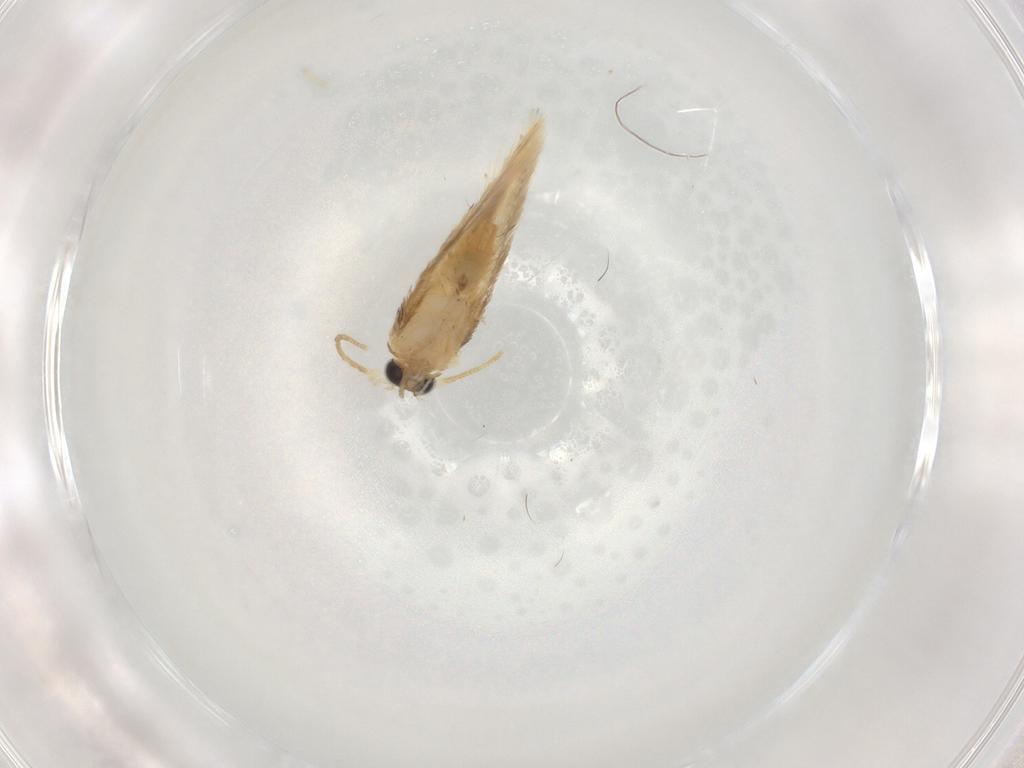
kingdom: Animalia
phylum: Arthropoda
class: Insecta
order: Lepidoptera
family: Nepticulidae
